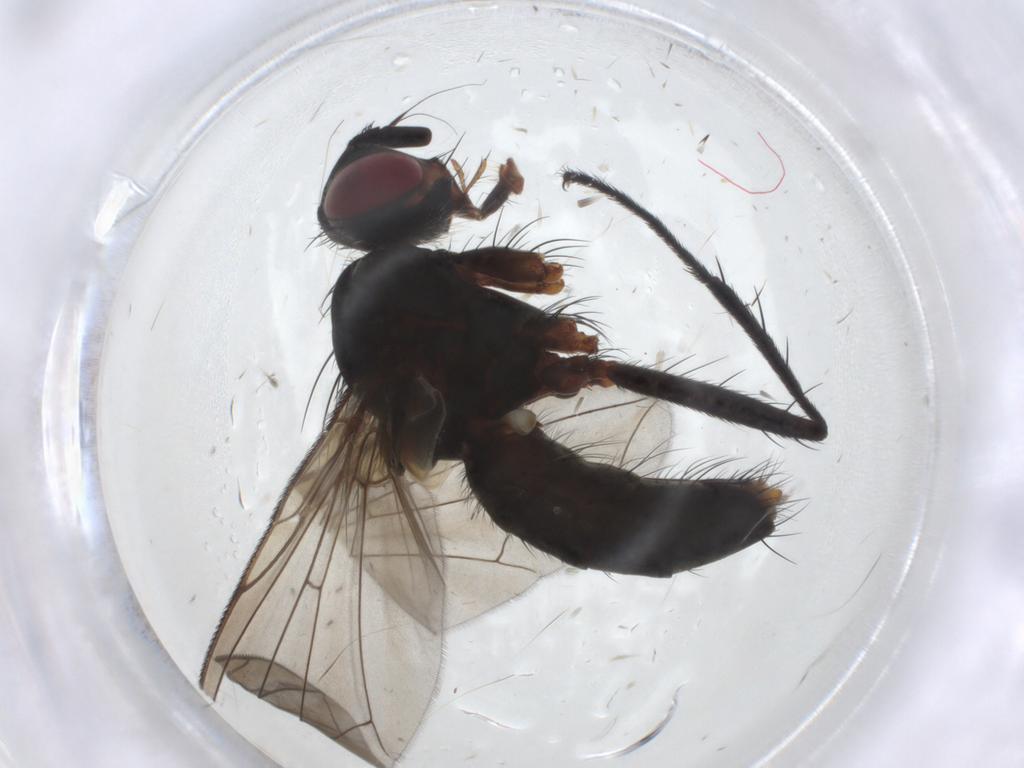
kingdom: Animalia
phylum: Arthropoda
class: Insecta
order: Diptera
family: Tachinidae
